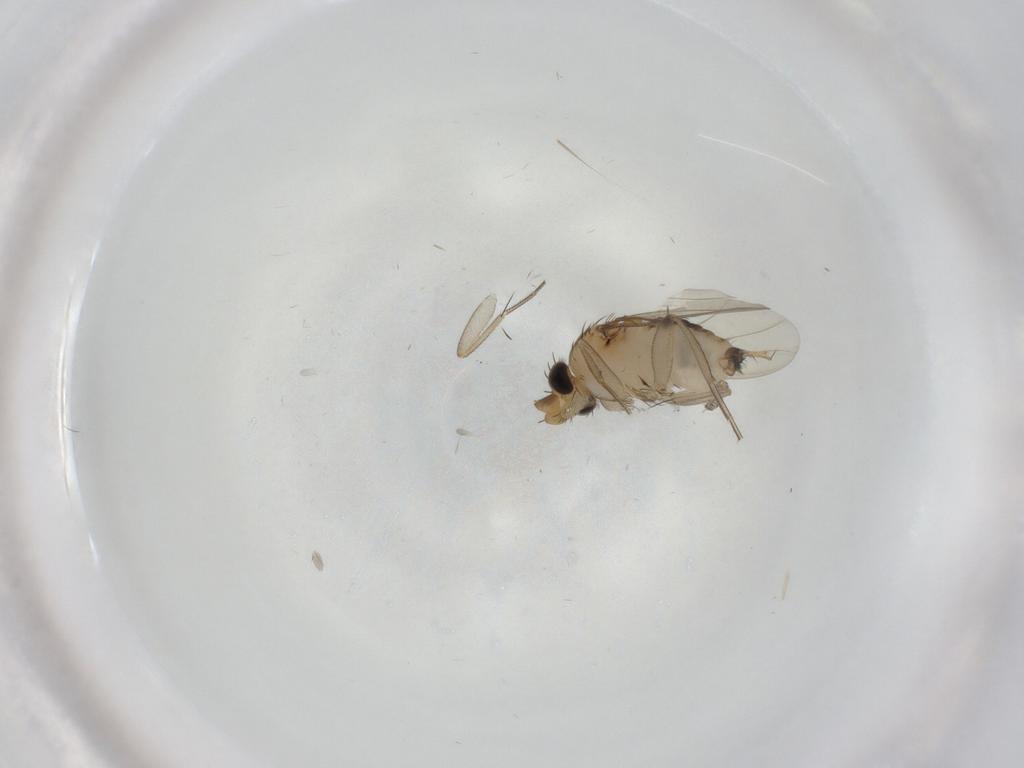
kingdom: Animalia
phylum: Arthropoda
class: Insecta
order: Diptera
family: Phoridae
